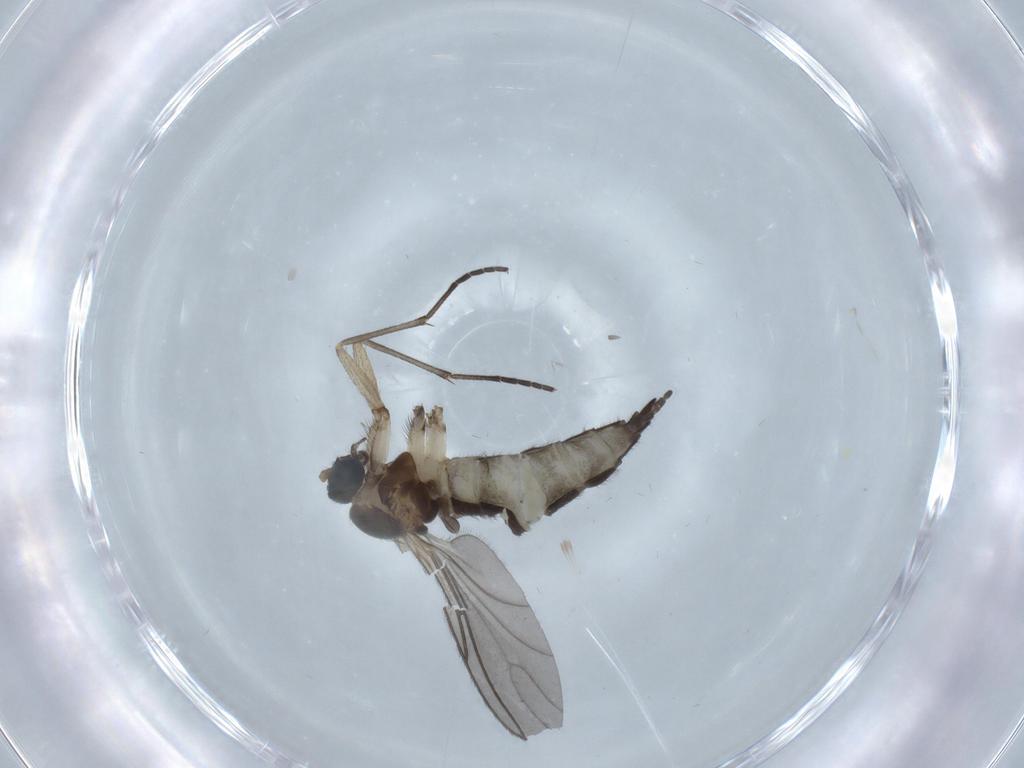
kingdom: Animalia
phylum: Arthropoda
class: Insecta
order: Diptera
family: Sciaridae
